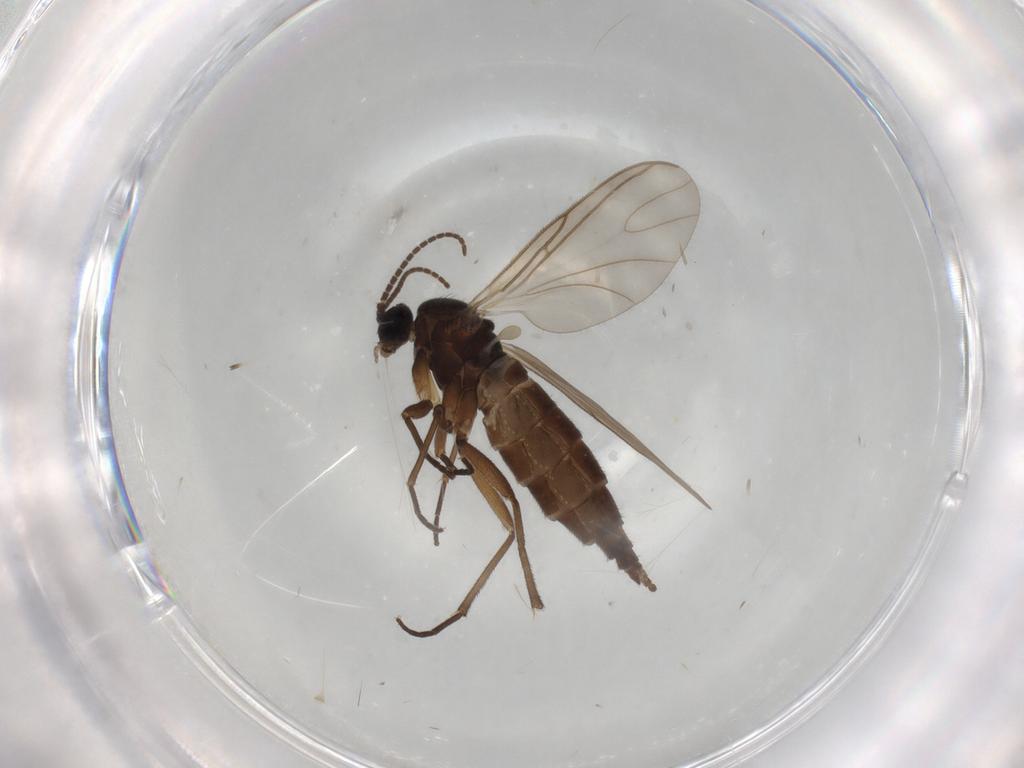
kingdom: Animalia
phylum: Arthropoda
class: Insecta
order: Diptera
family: Sciaridae
